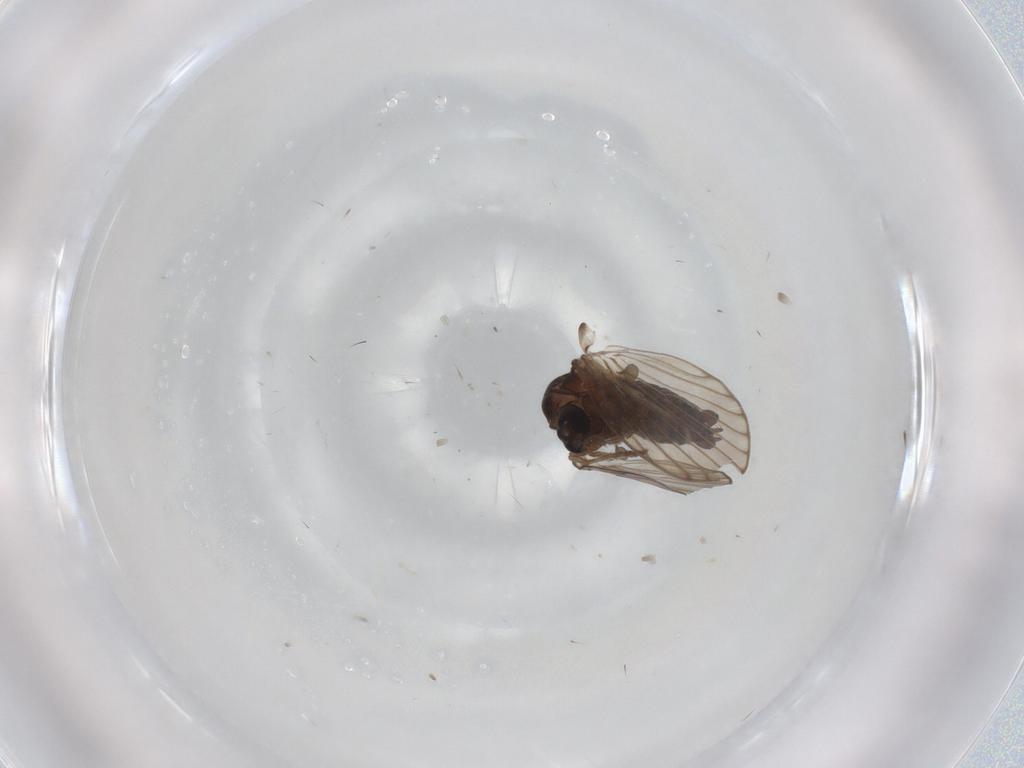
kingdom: Animalia
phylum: Arthropoda
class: Insecta
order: Diptera
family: Psychodidae
